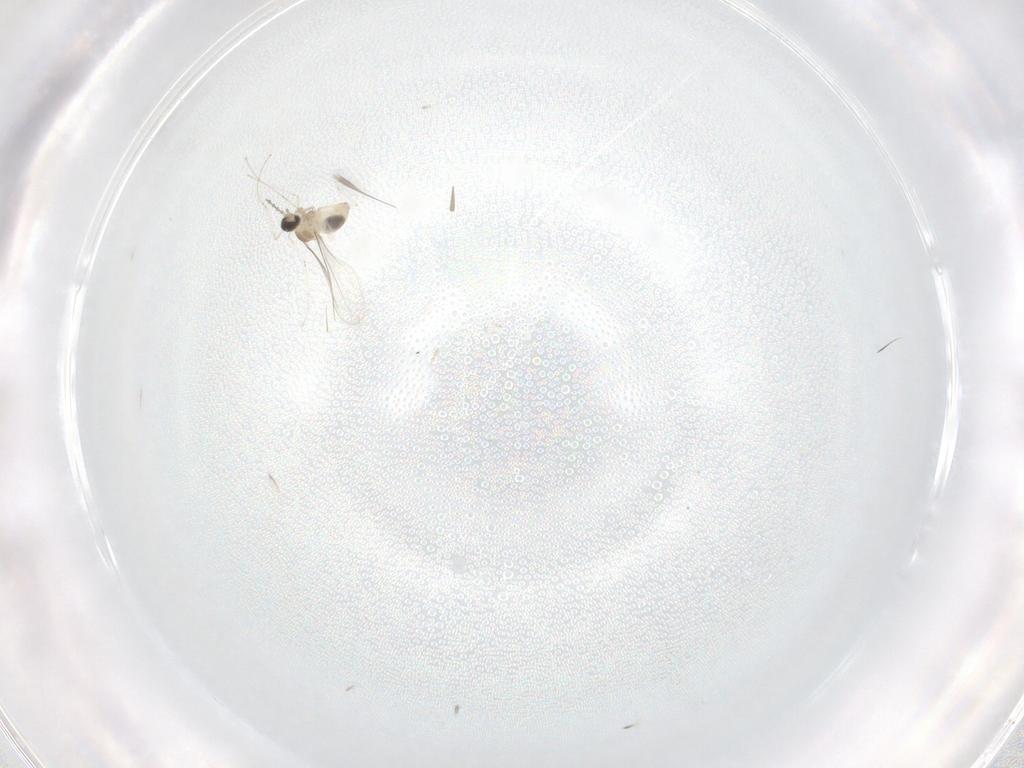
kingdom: Animalia
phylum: Arthropoda
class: Insecta
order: Diptera
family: Cecidomyiidae
